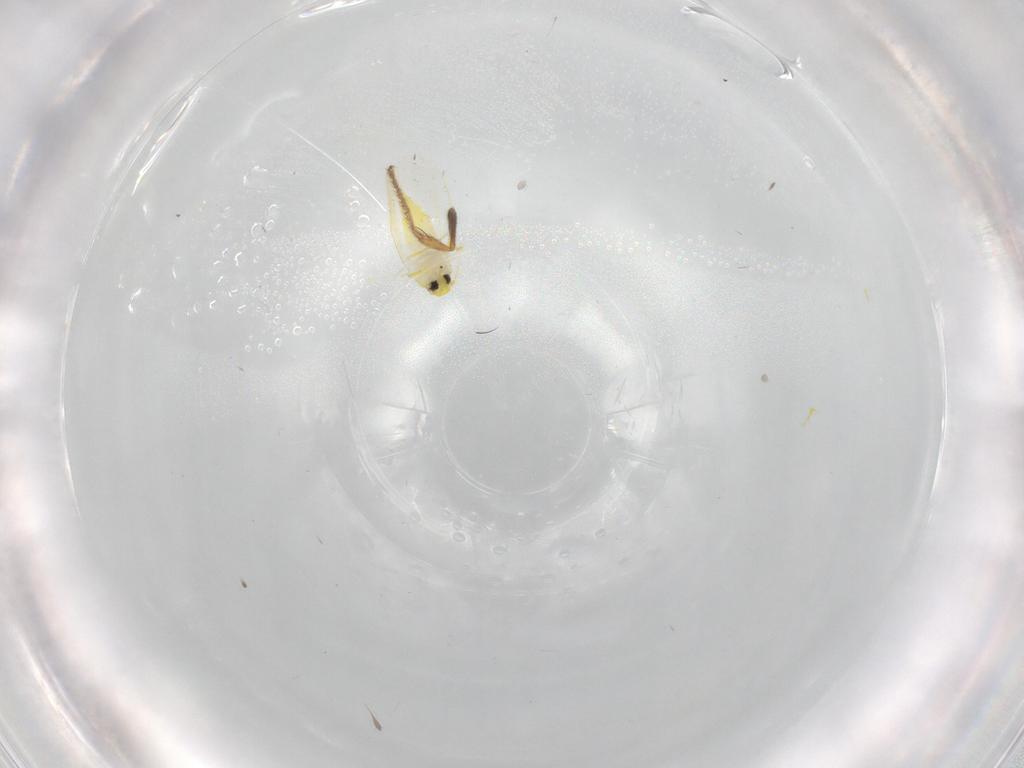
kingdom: Animalia
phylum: Arthropoda
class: Insecta
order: Hemiptera
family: Aleyrodidae
